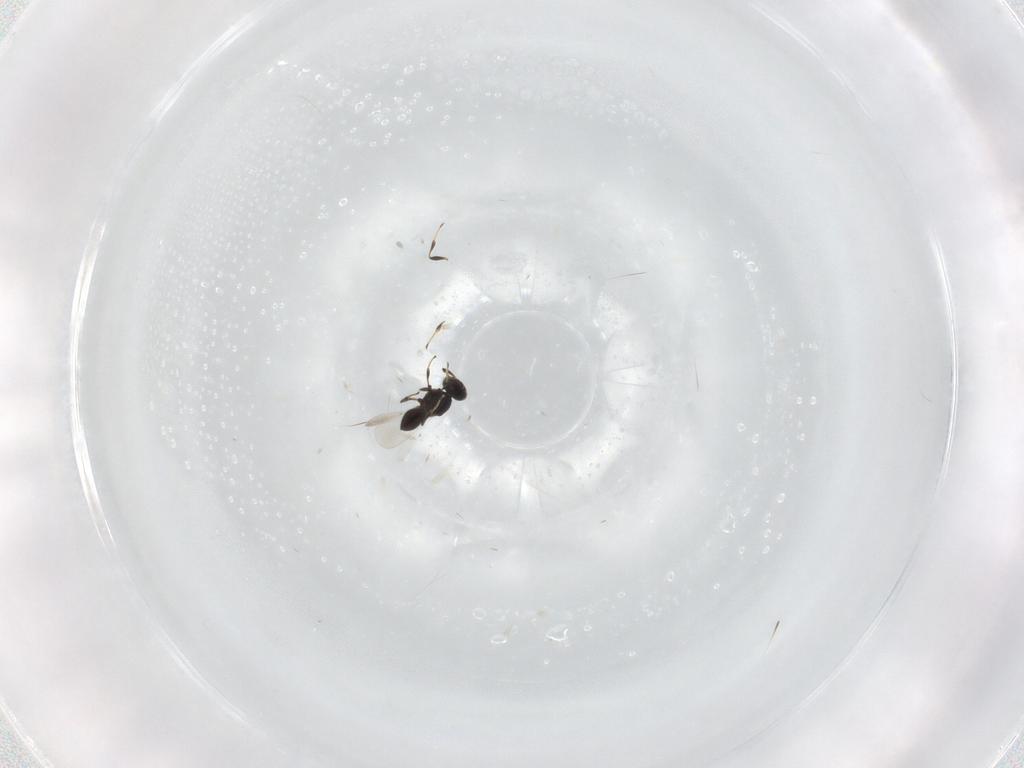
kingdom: Animalia
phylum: Arthropoda
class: Insecta
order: Hymenoptera
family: Platygastridae
